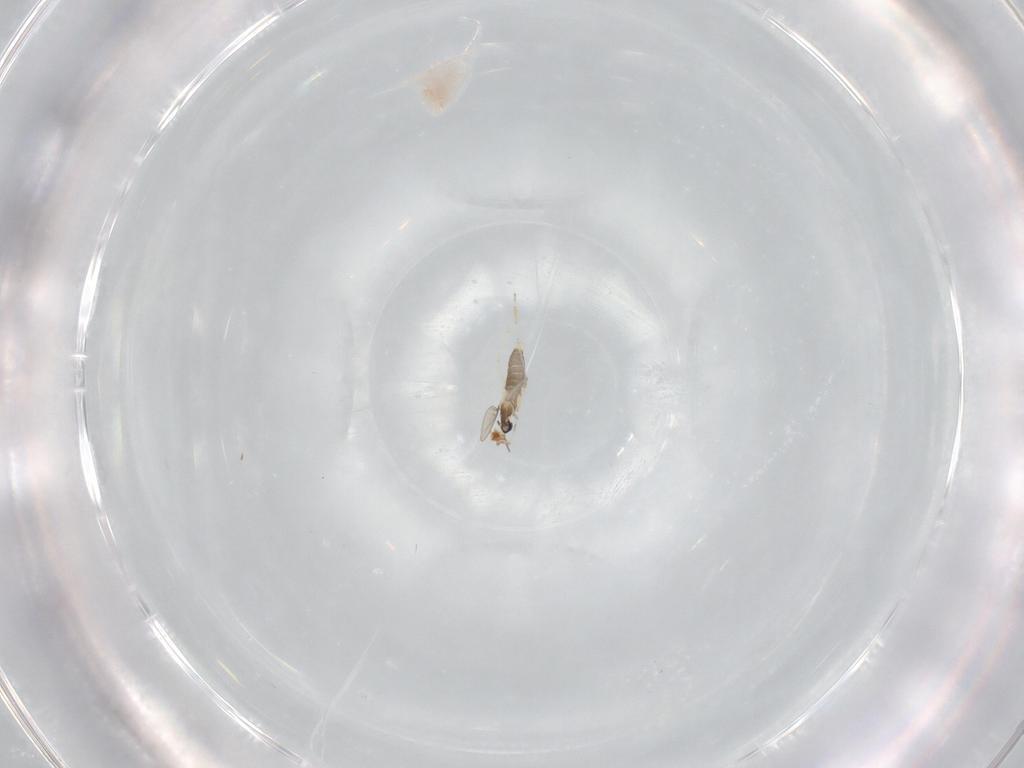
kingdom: Animalia
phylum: Arthropoda
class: Insecta
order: Diptera
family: Cecidomyiidae
